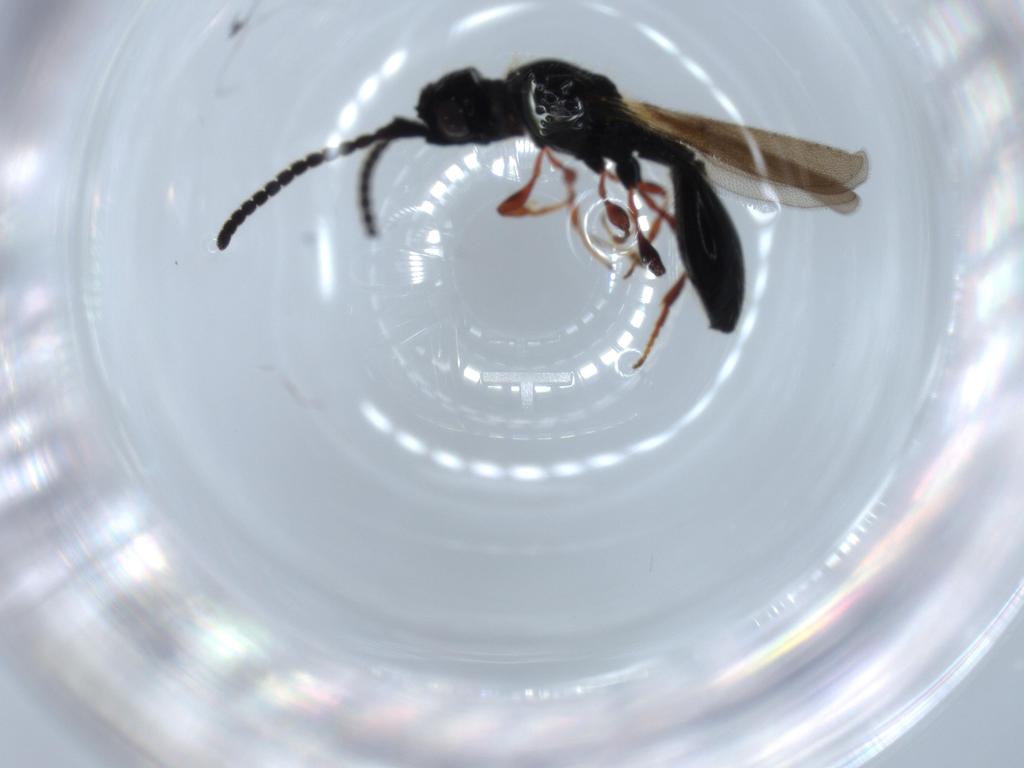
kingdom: Animalia
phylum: Arthropoda
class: Insecta
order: Hymenoptera
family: Diapriidae
